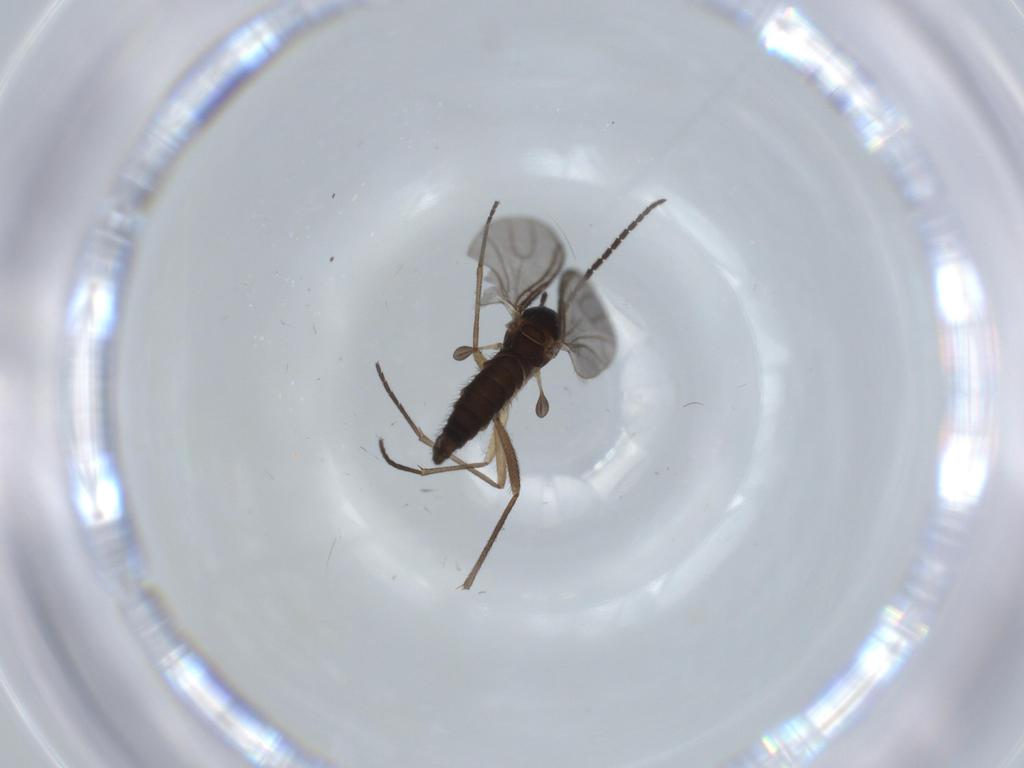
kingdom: Animalia
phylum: Arthropoda
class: Insecta
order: Diptera
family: Sciaridae
